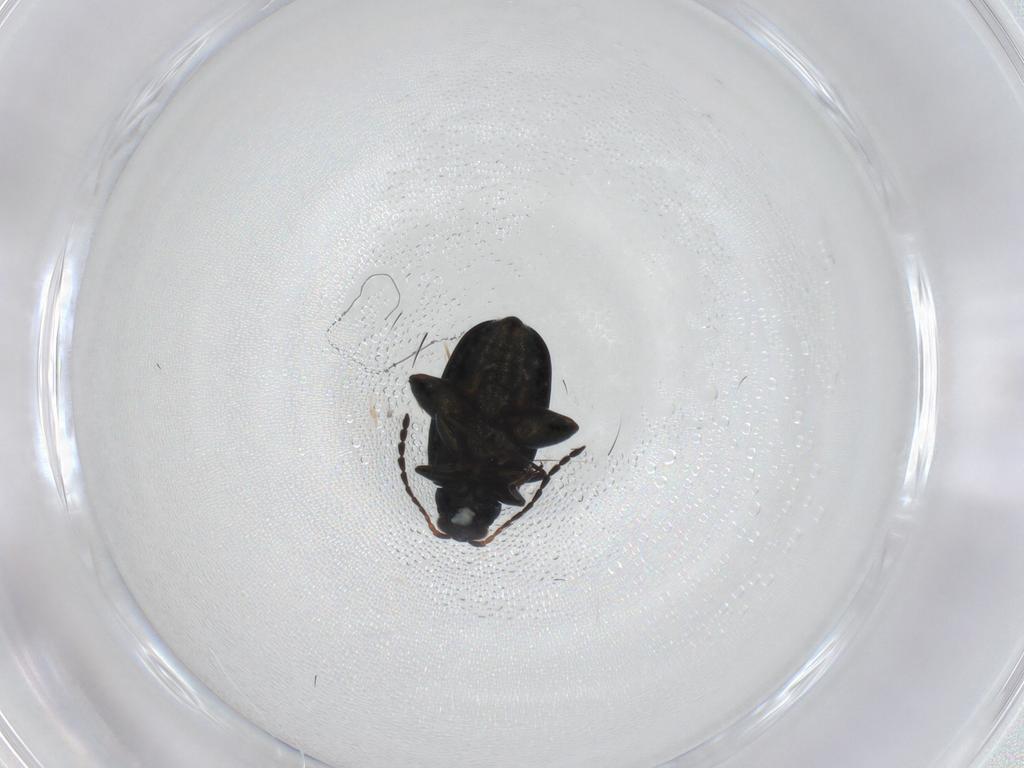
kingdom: Animalia
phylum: Arthropoda
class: Insecta
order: Coleoptera
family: Chrysomelidae
